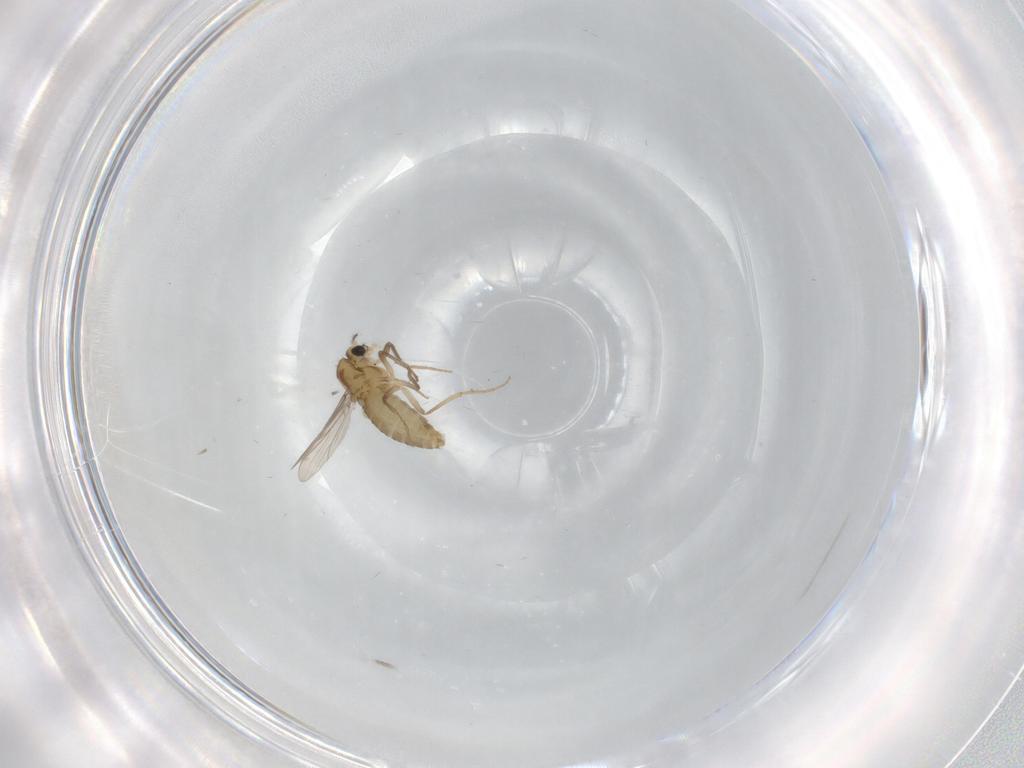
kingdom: Animalia
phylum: Arthropoda
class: Insecta
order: Diptera
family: Chironomidae
